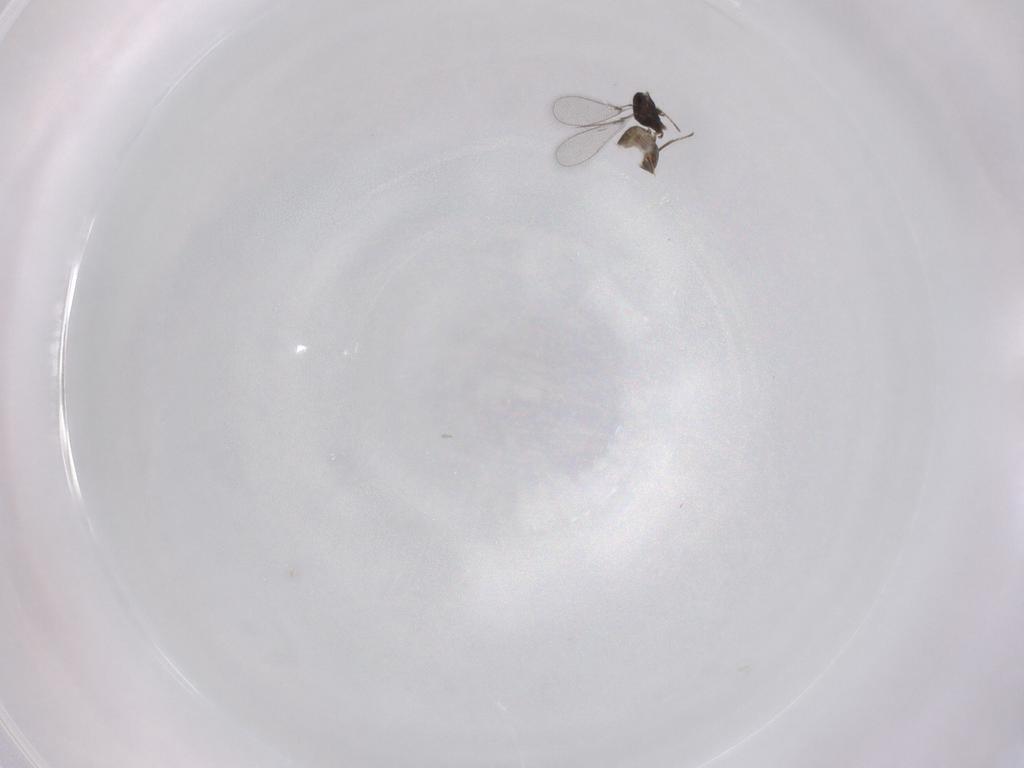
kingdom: Animalia
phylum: Arthropoda
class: Insecta
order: Hymenoptera
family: Mymaridae
